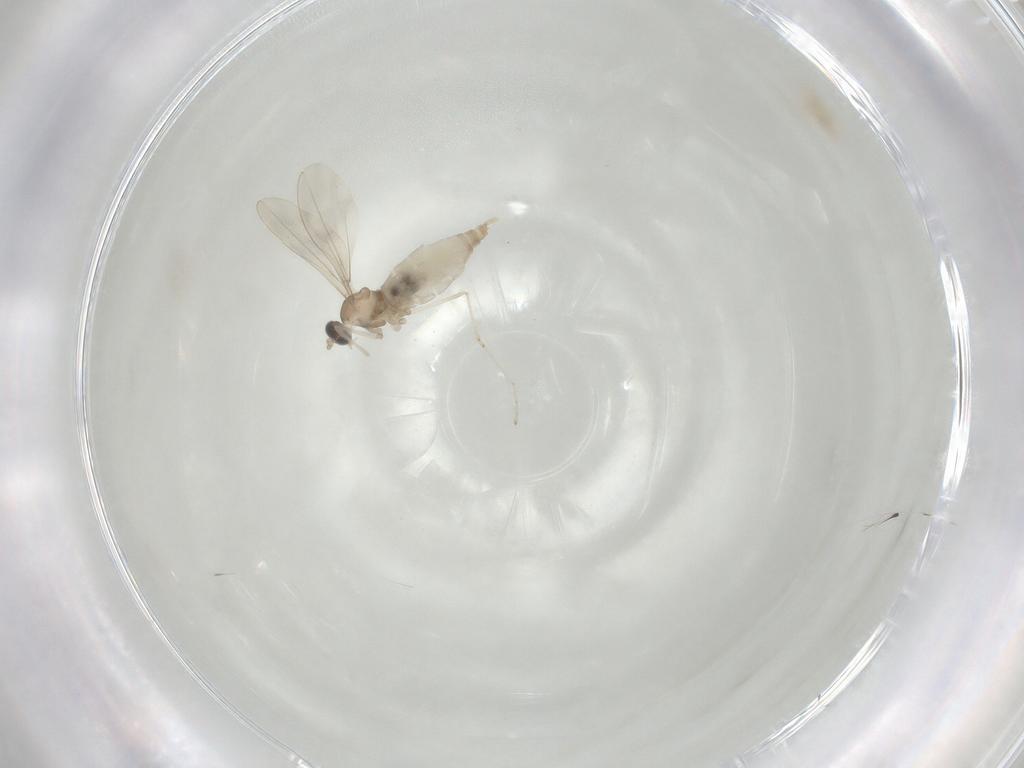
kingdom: Animalia
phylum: Arthropoda
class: Insecta
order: Diptera
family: Cecidomyiidae
